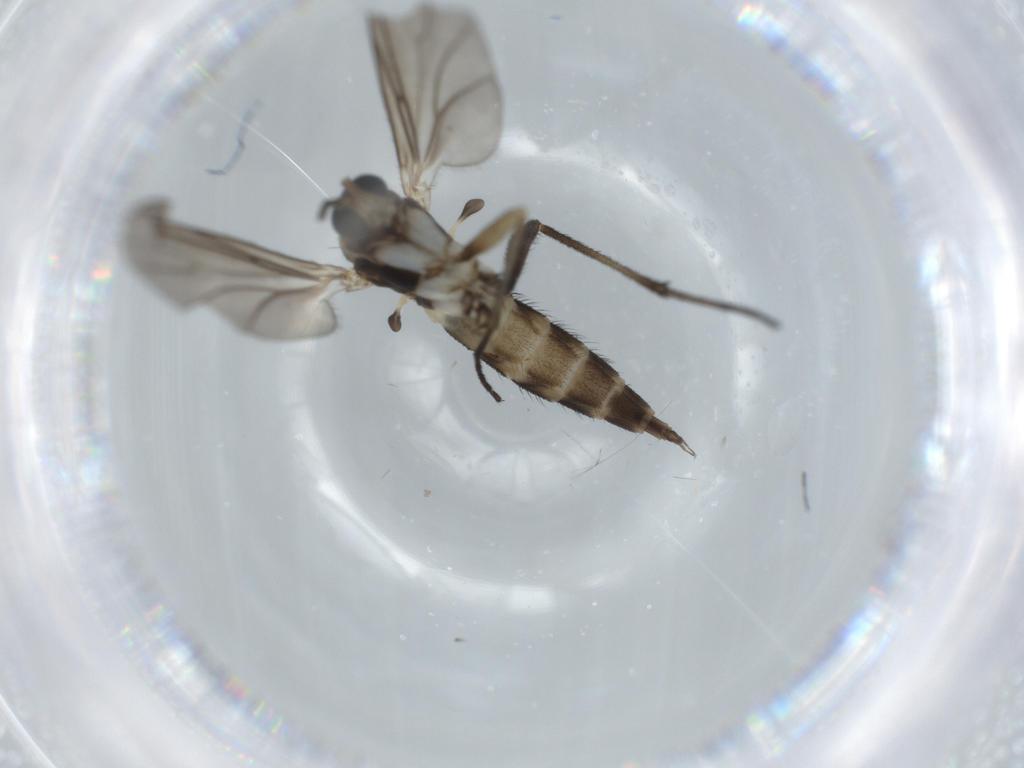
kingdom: Animalia
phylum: Arthropoda
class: Insecta
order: Diptera
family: Sciaridae
